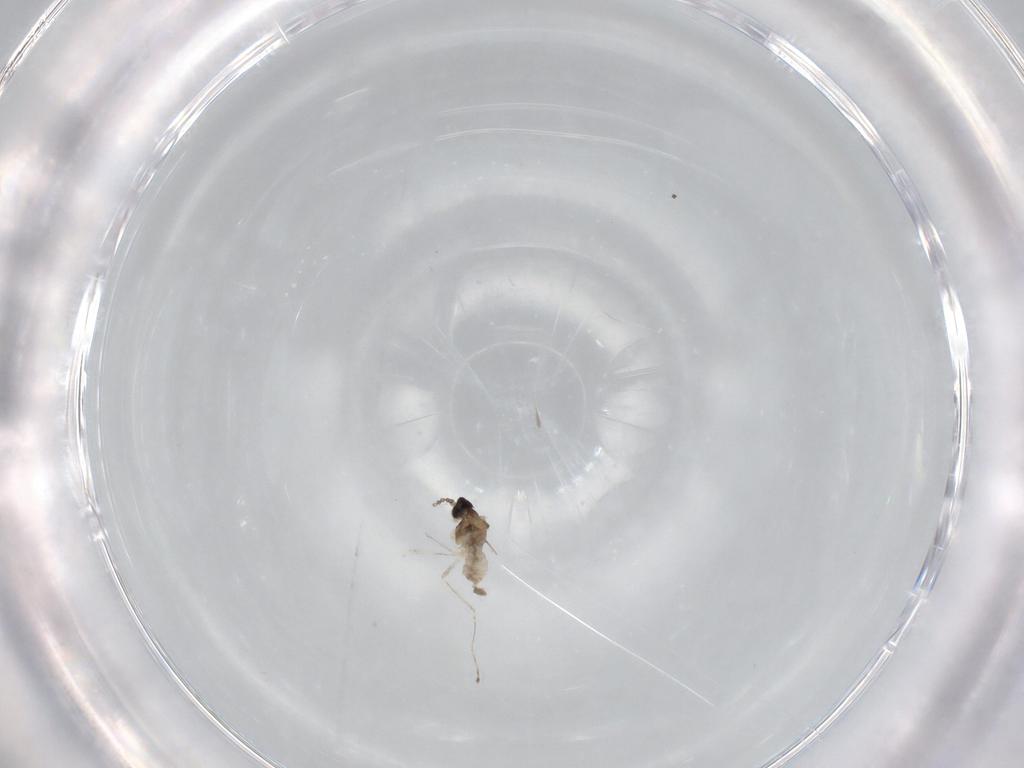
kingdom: Animalia
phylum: Arthropoda
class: Insecta
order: Diptera
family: Cecidomyiidae
